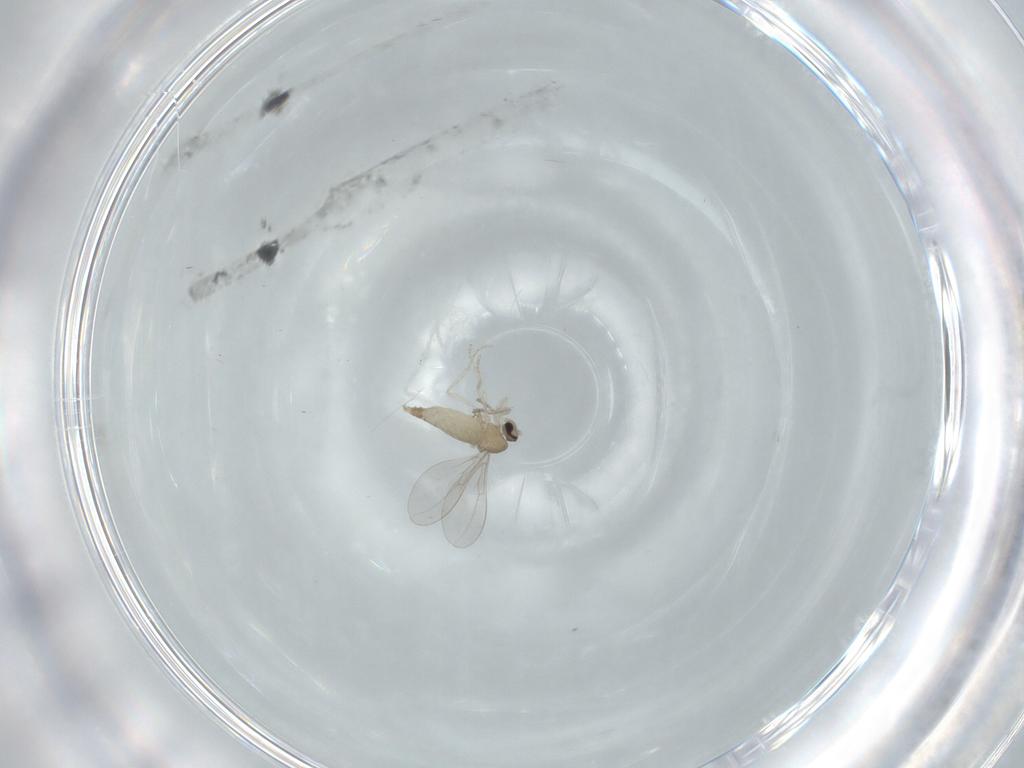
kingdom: Animalia
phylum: Arthropoda
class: Insecta
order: Diptera
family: Cecidomyiidae
